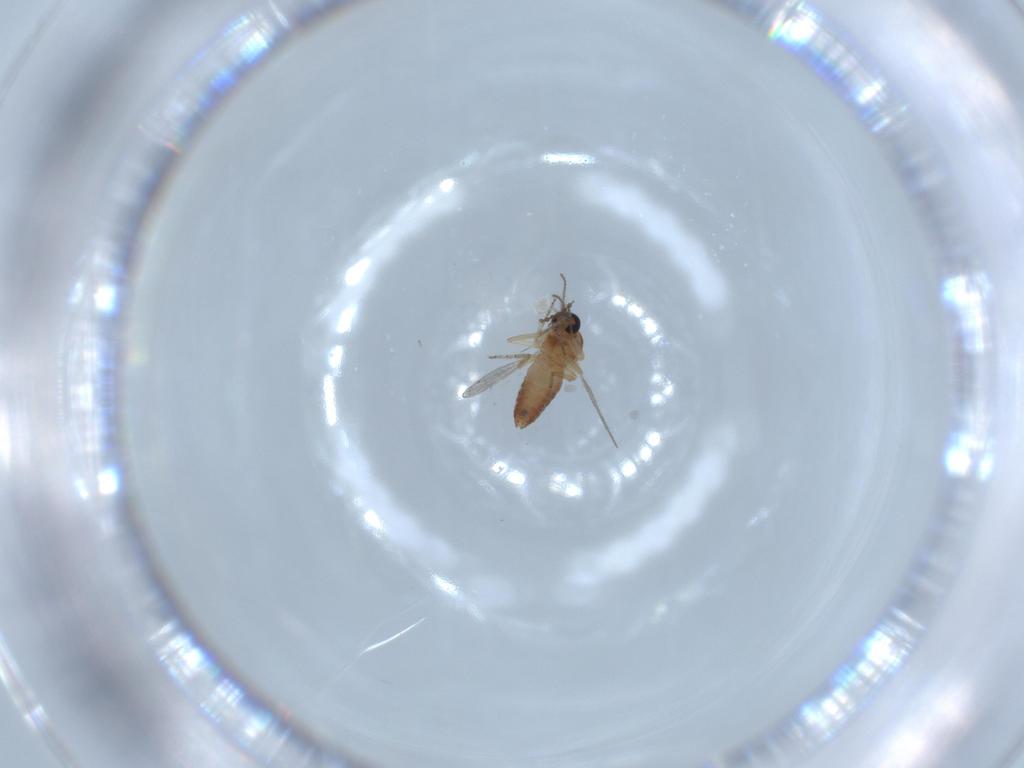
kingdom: Animalia
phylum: Arthropoda
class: Insecta
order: Diptera
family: Ceratopogonidae
